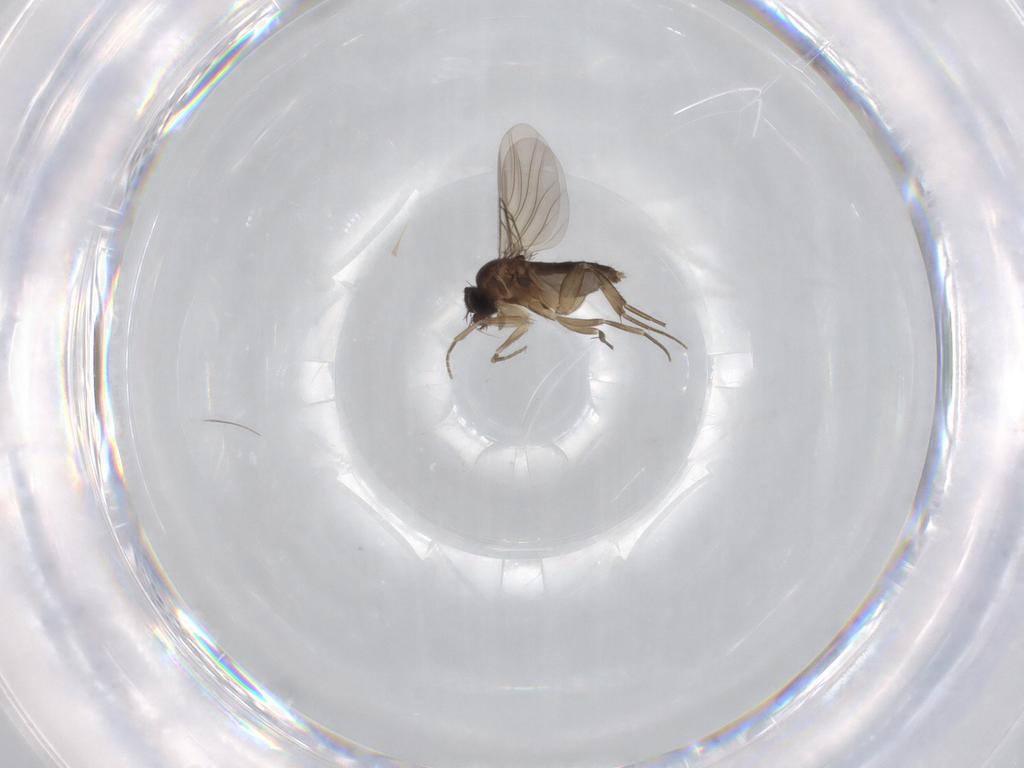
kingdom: Animalia
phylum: Arthropoda
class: Insecta
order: Diptera
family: Phoridae
